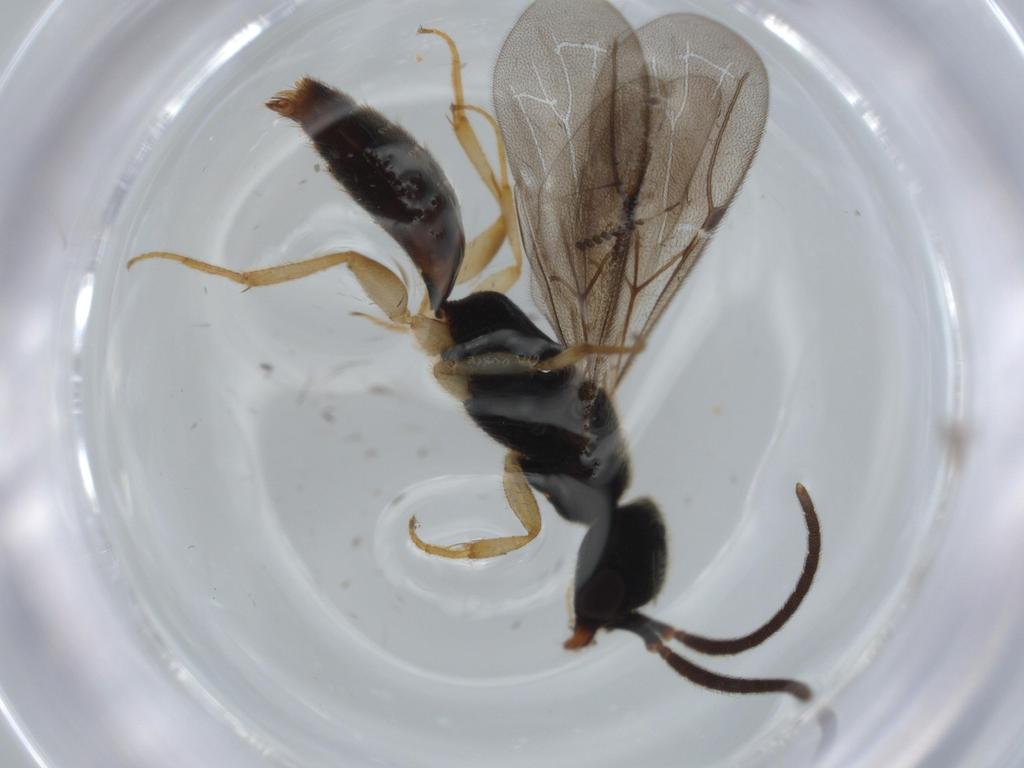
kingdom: Animalia
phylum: Arthropoda
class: Insecta
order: Hymenoptera
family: Bethylidae
